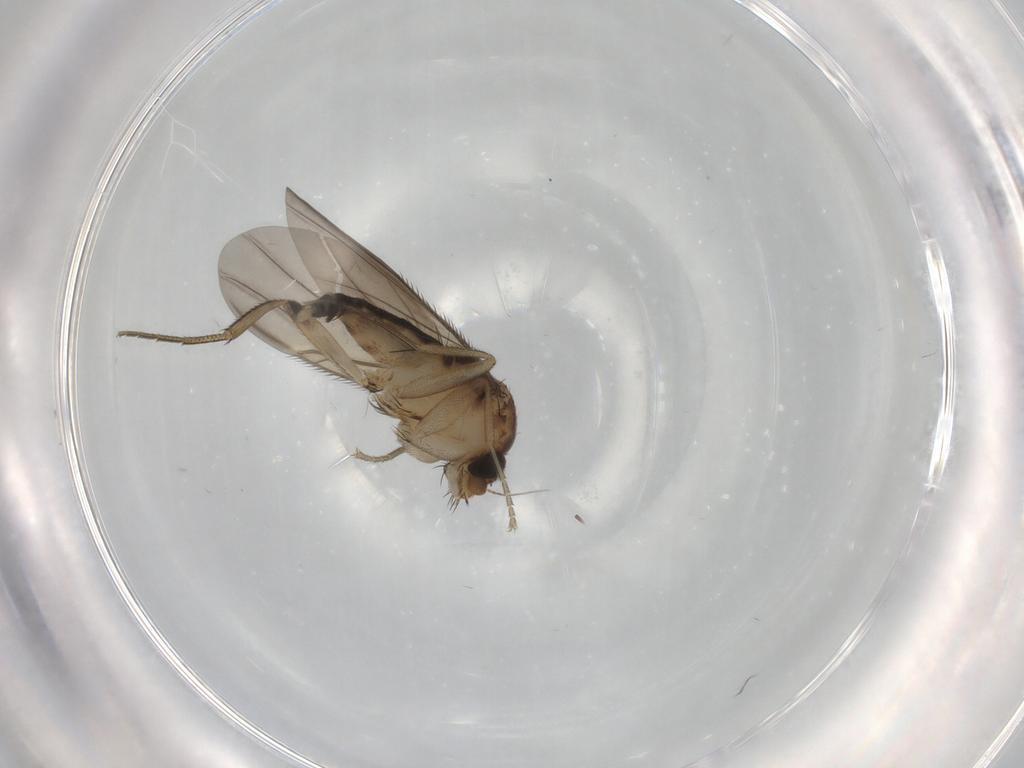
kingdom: Animalia
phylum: Arthropoda
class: Insecta
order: Diptera
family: Phoridae
